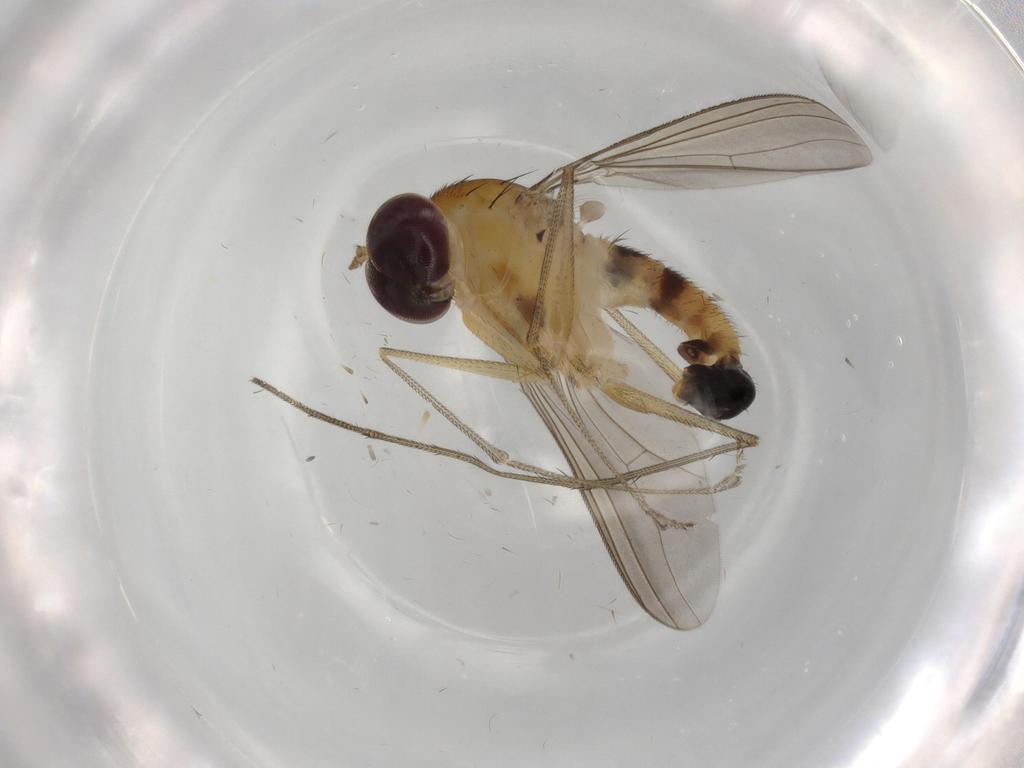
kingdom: Animalia
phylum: Arthropoda
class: Insecta
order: Diptera
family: Dolichopodidae
